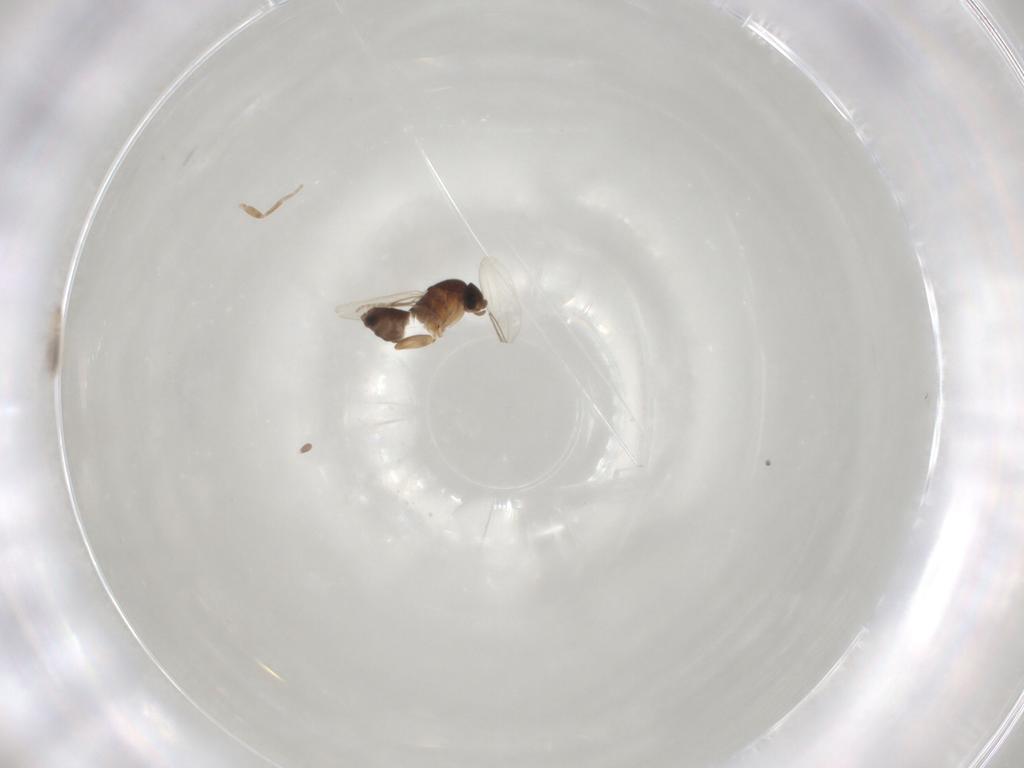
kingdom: Animalia
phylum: Arthropoda
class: Insecta
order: Diptera
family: Phoridae
